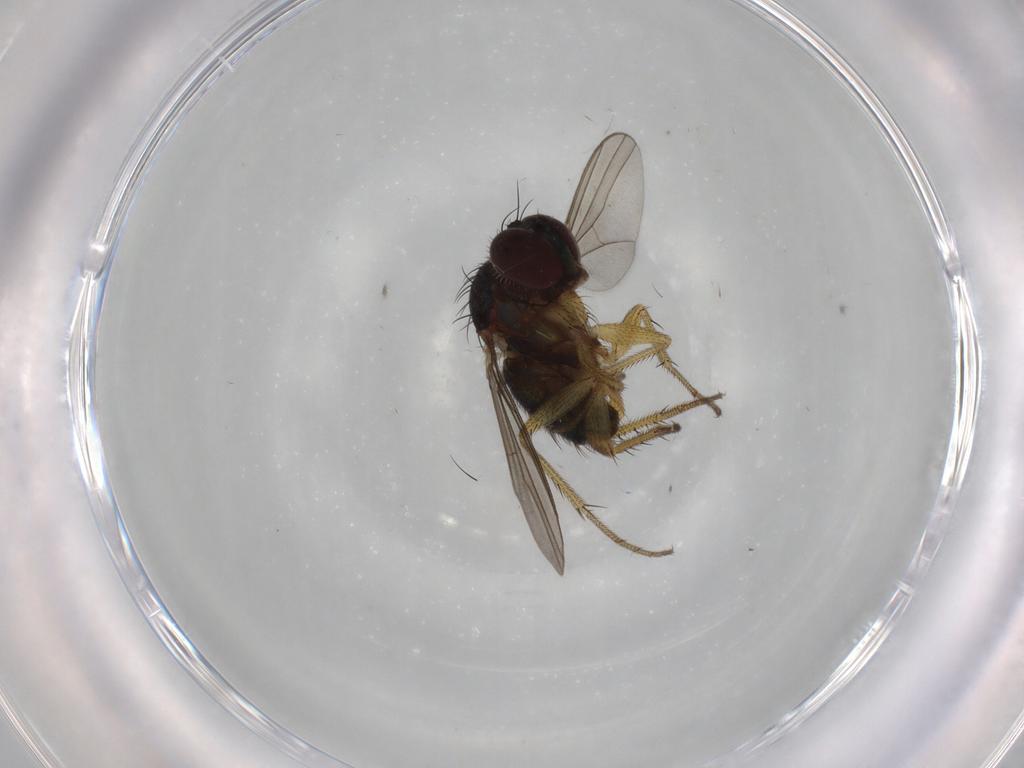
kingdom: Animalia
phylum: Arthropoda
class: Insecta
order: Diptera
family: Dolichopodidae
